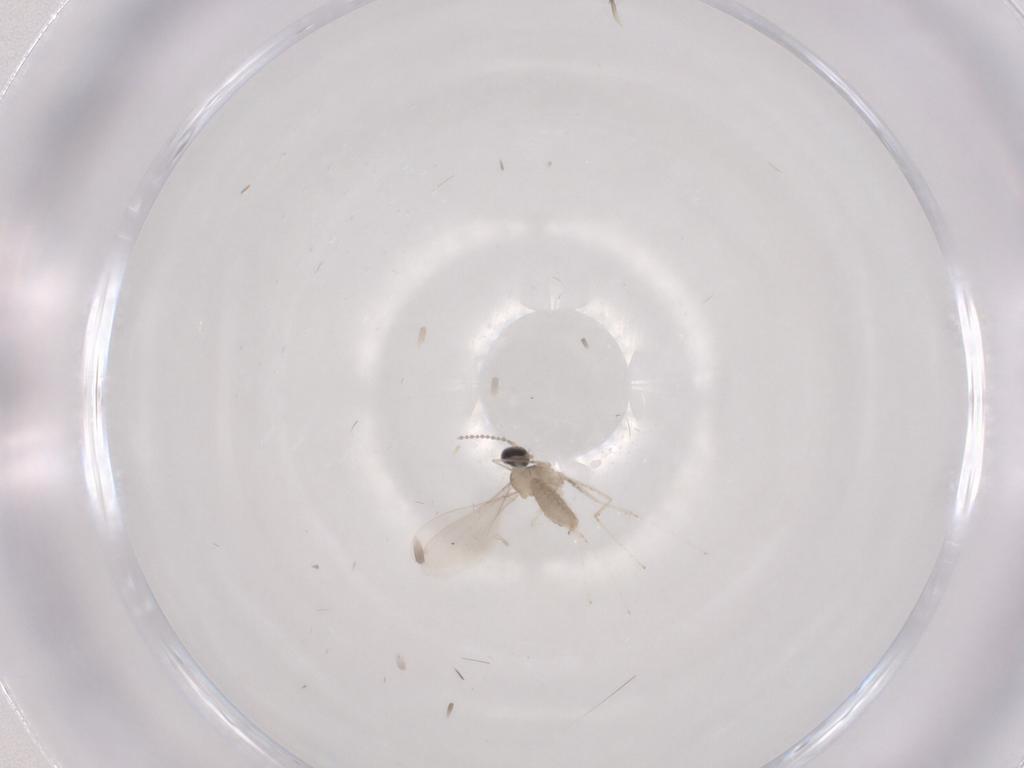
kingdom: Animalia
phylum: Arthropoda
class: Insecta
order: Diptera
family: Cecidomyiidae
